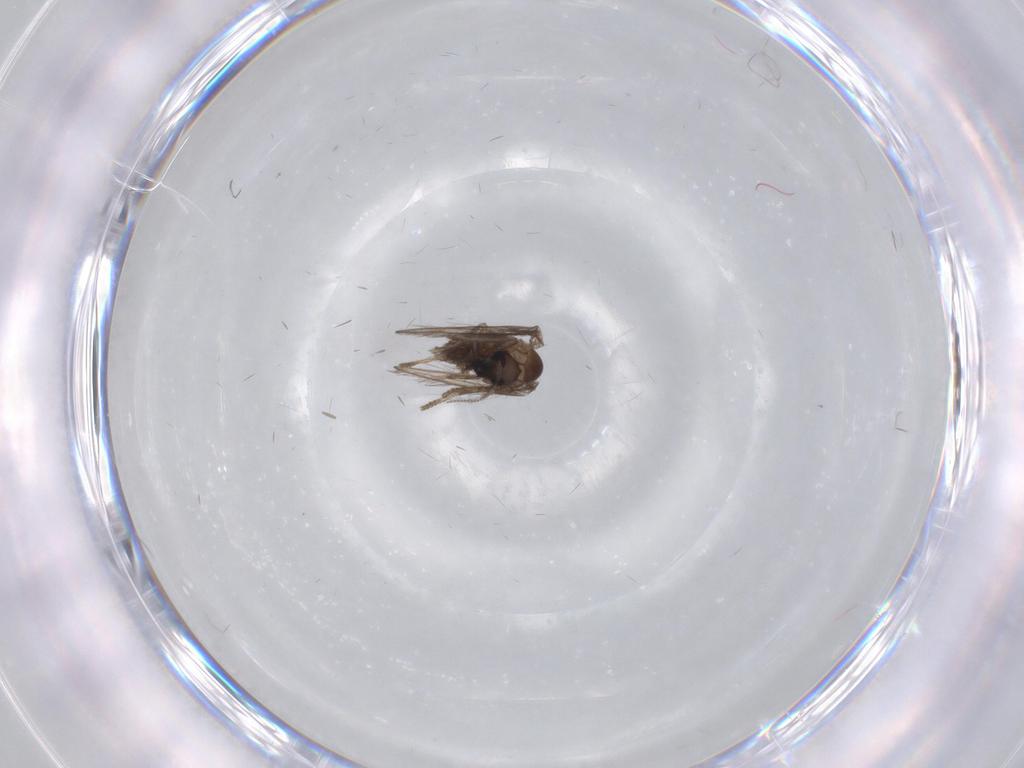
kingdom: Animalia
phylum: Arthropoda
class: Insecta
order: Diptera
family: Psychodidae
